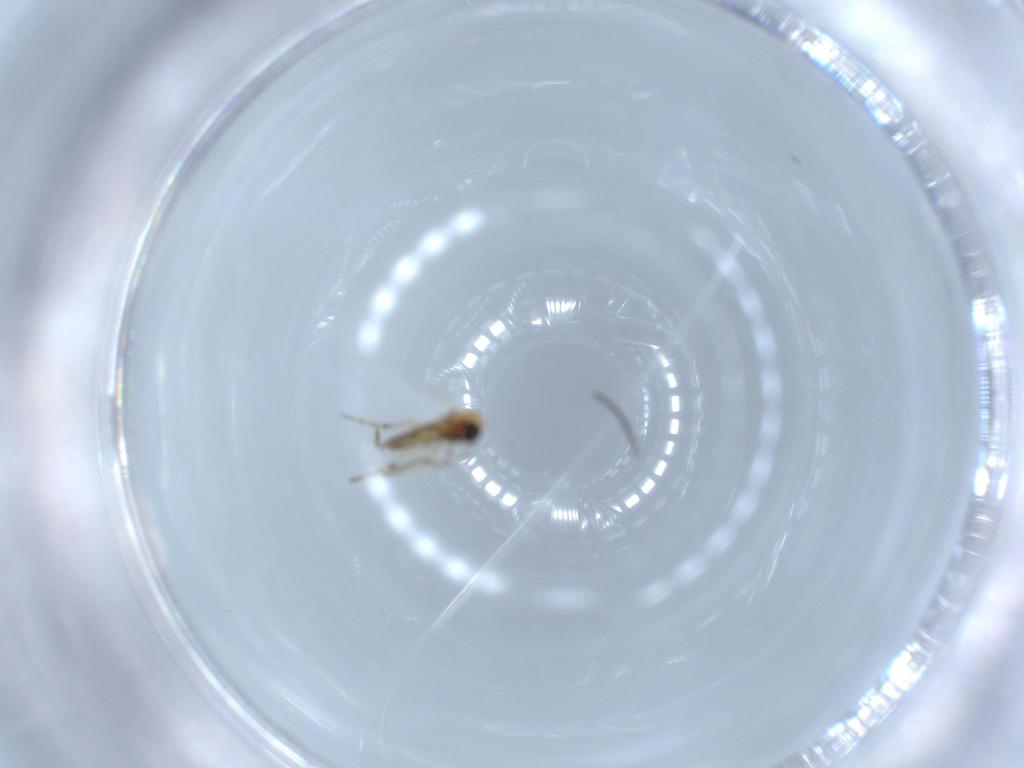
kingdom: Animalia
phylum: Arthropoda
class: Insecta
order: Diptera
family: Sciaridae
